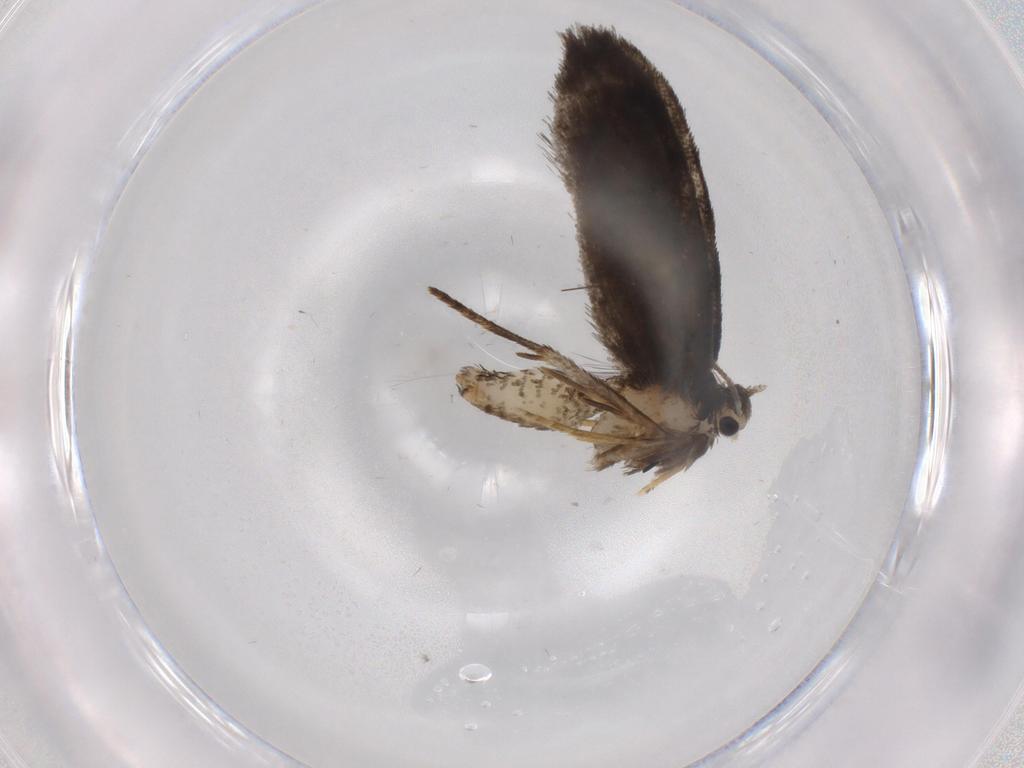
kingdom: Animalia
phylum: Arthropoda
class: Insecta
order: Lepidoptera
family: Psychidae
